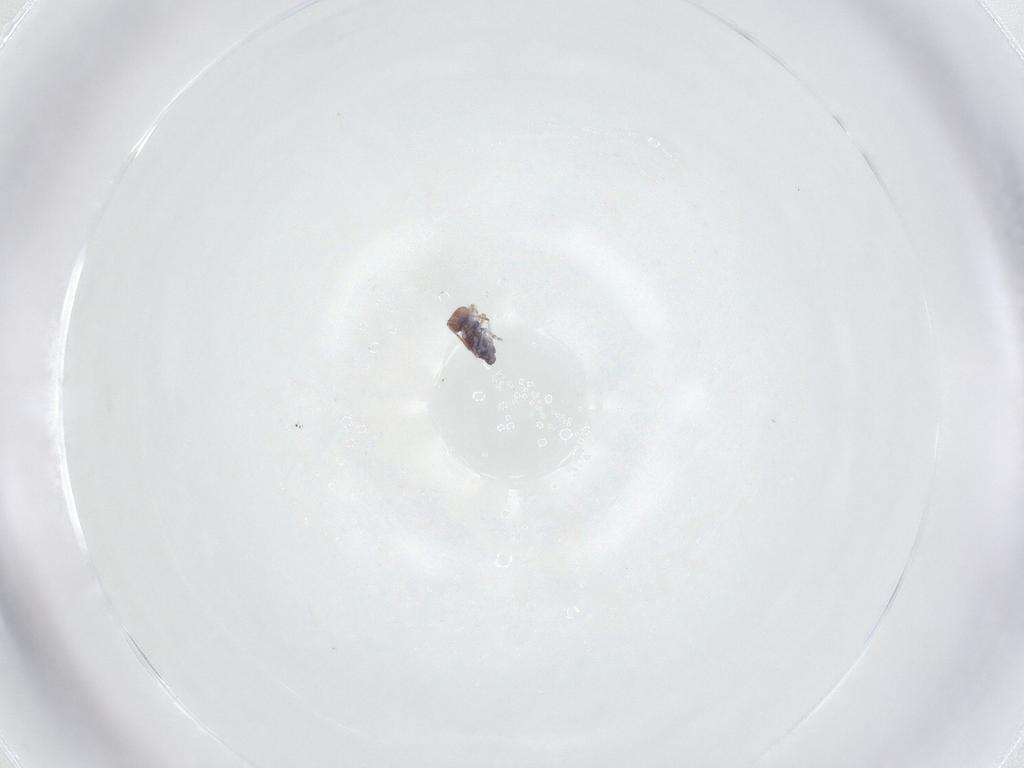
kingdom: Animalia
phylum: Arthropoda
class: Collembola
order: Symphypleona
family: Bourletiellidae
